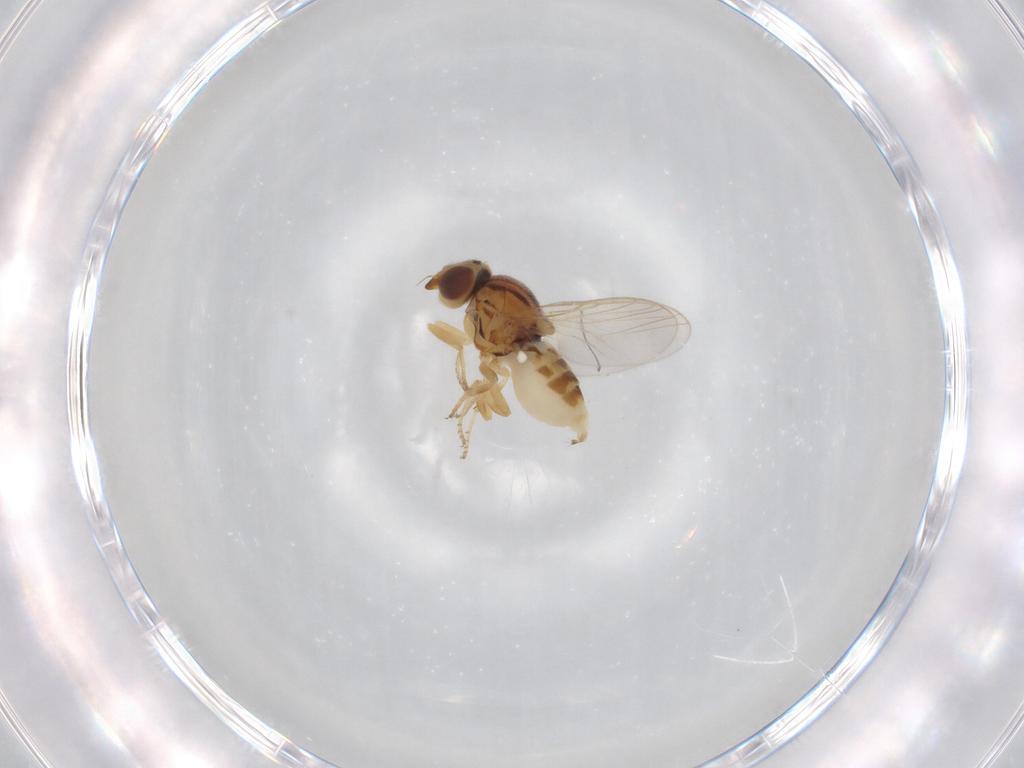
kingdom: Animalia
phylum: Arthropoda
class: Insecta
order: Diptera
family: Chloropidae
